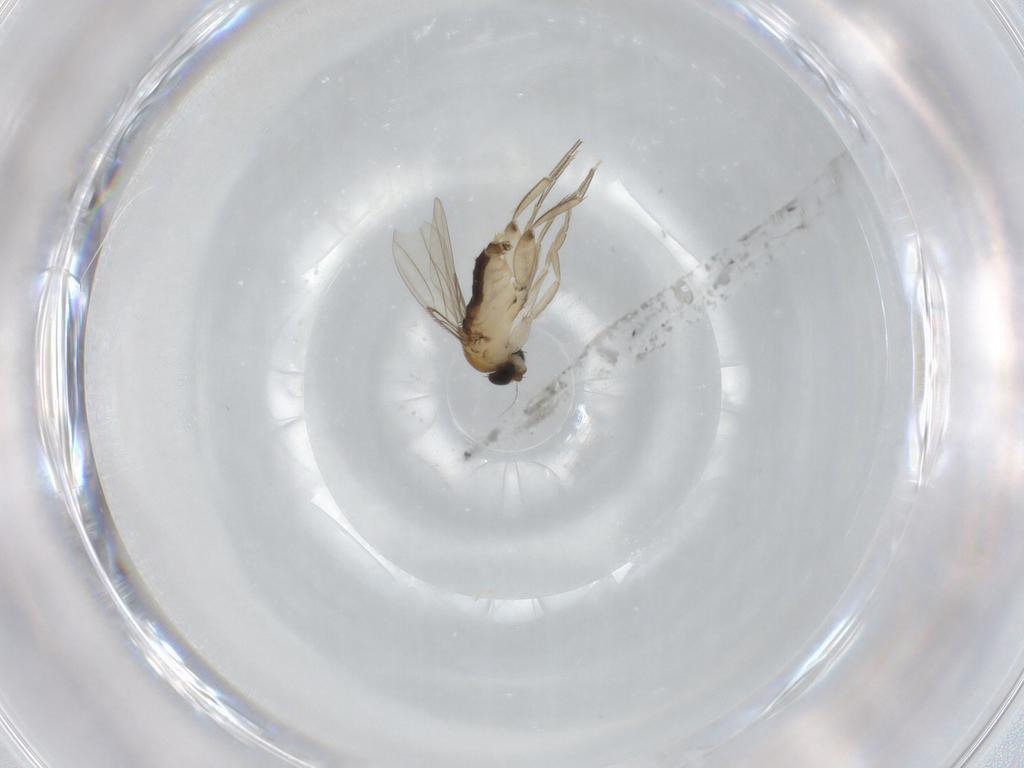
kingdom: Animalia
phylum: Arthropoda
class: Insecta
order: Diptera
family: Phoridae
